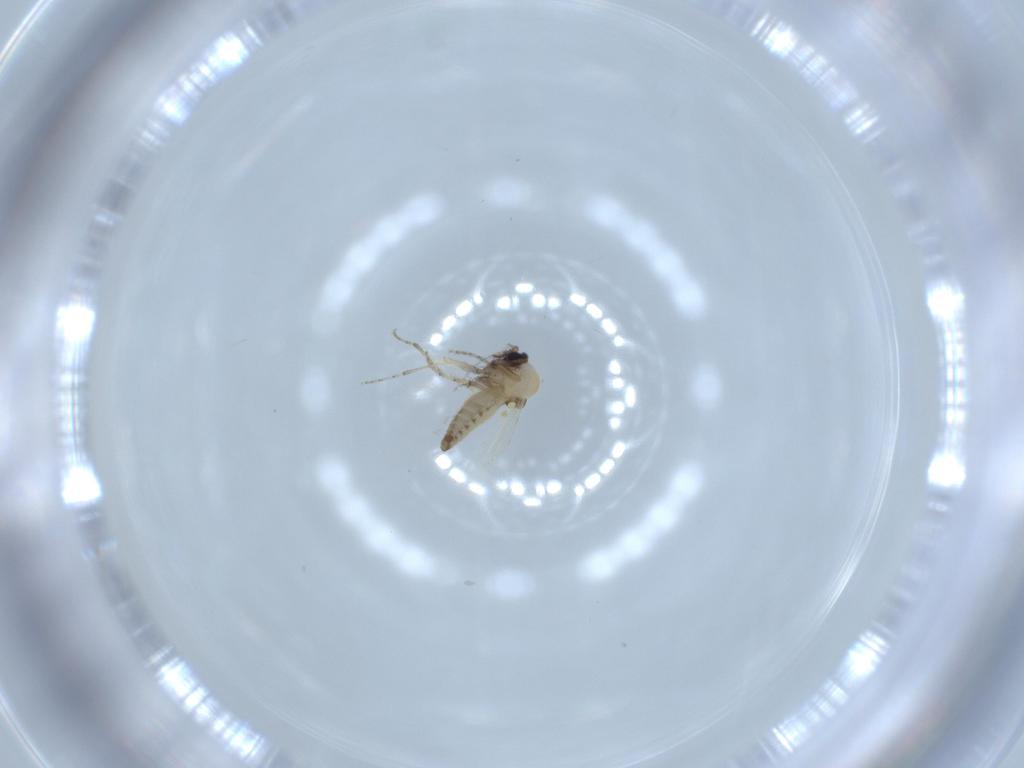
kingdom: Animalia
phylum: Arthropoda
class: Insecta
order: Diptera
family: Ceratopogonidae
